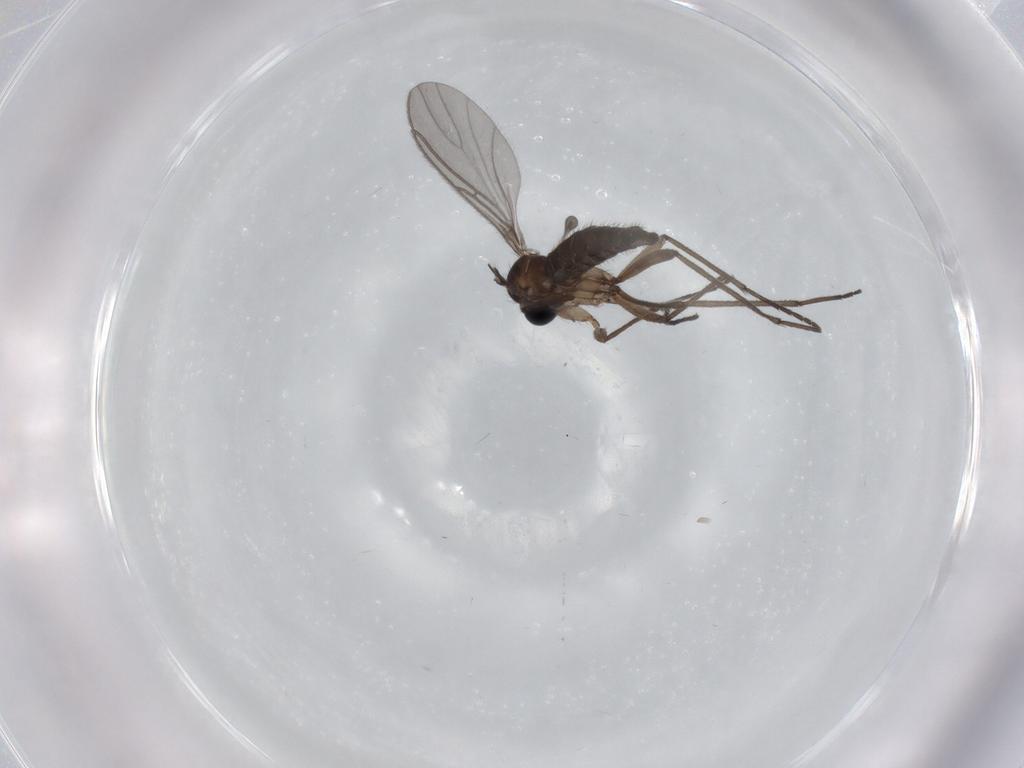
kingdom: Animalia
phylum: Arthropoda
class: Insecta
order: Diptera
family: Sciaridae
